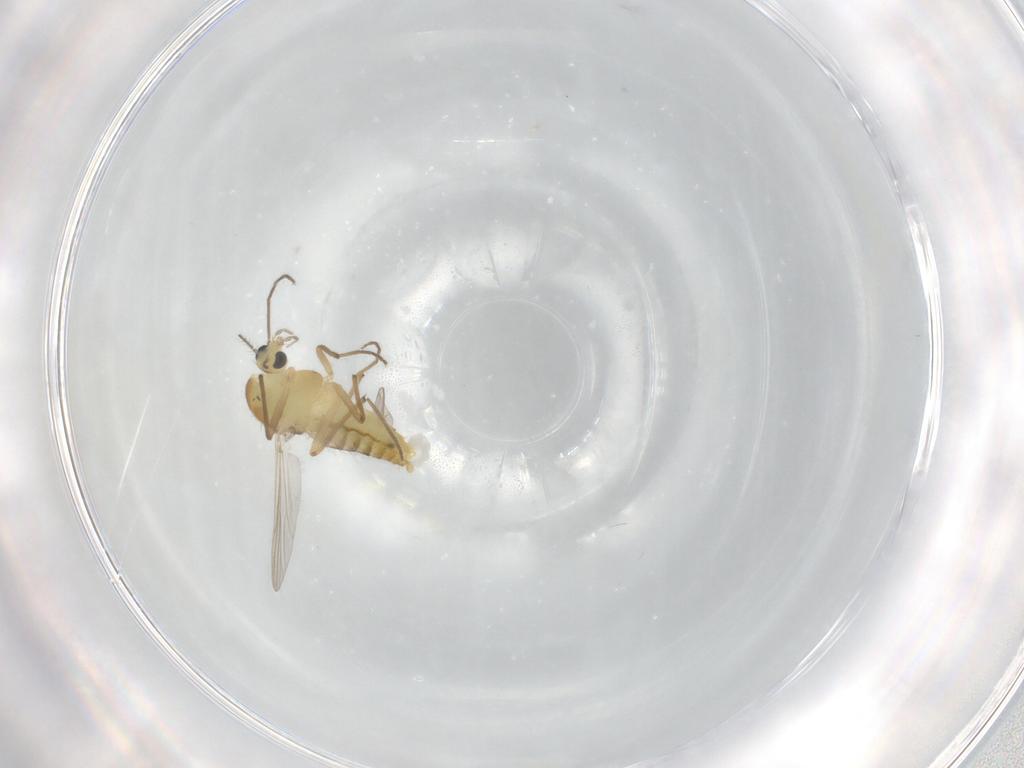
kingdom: Animalia
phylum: Arthropoda
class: Insecta
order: Diptera
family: Chironomidae
